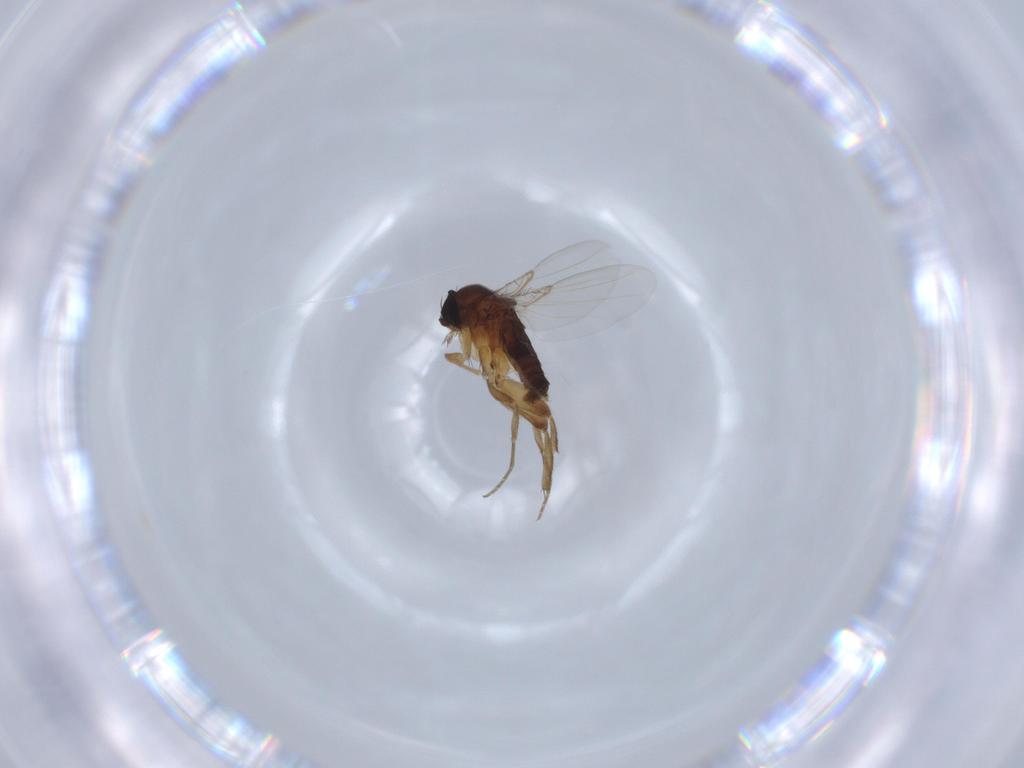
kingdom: Animalia
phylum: Arthropoda
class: Insecta
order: Diptera
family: Phoridae
